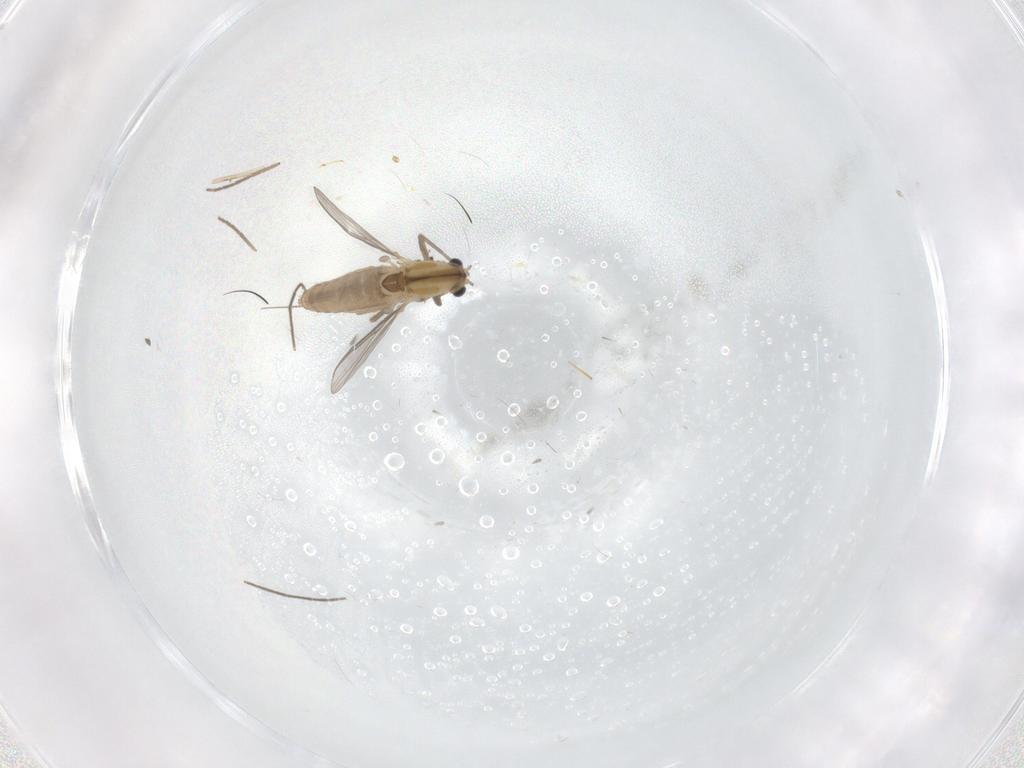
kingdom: Animalia
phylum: Arthropoda
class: Insecta
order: Diptera
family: Chironomidae
